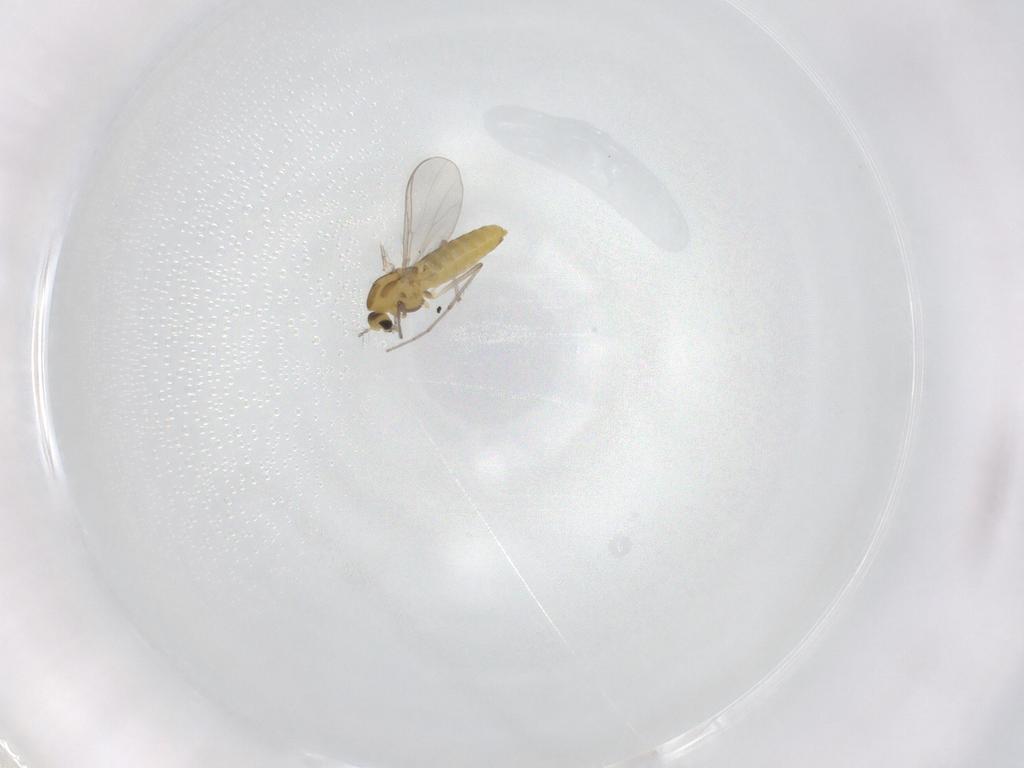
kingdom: Animalia
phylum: Arthropoda
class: Insecta
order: Diptera
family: Chironomidae
